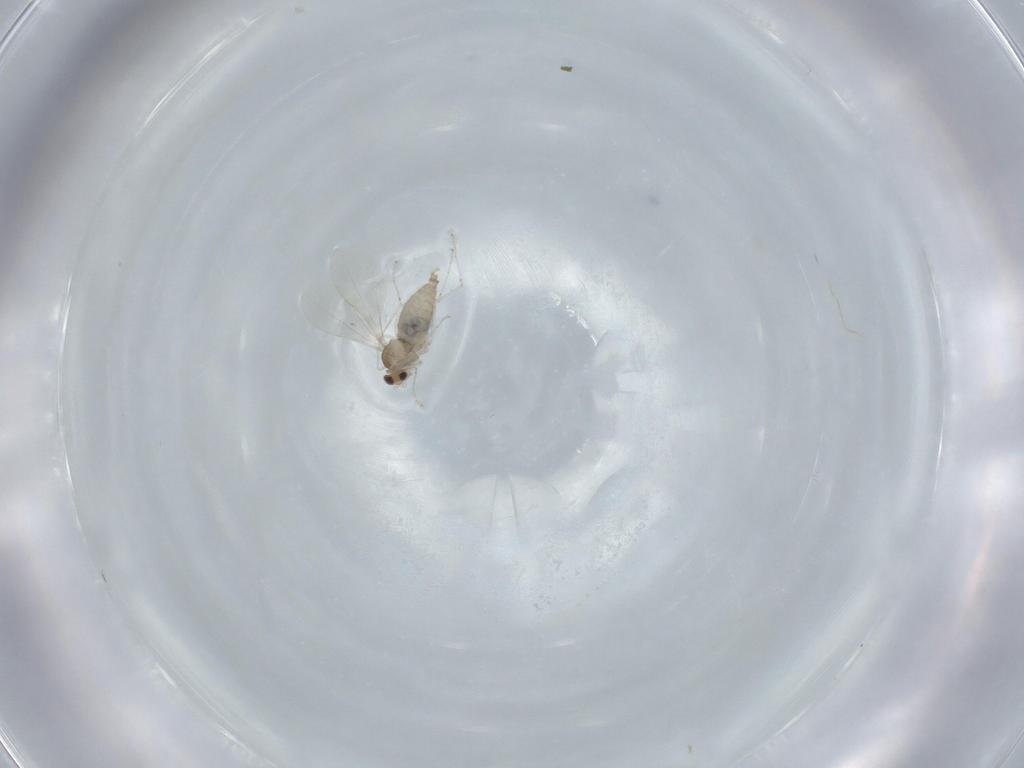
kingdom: Animalia
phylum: Arthropoda
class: Insecta
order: Diptera
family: Cecidomyiidae
